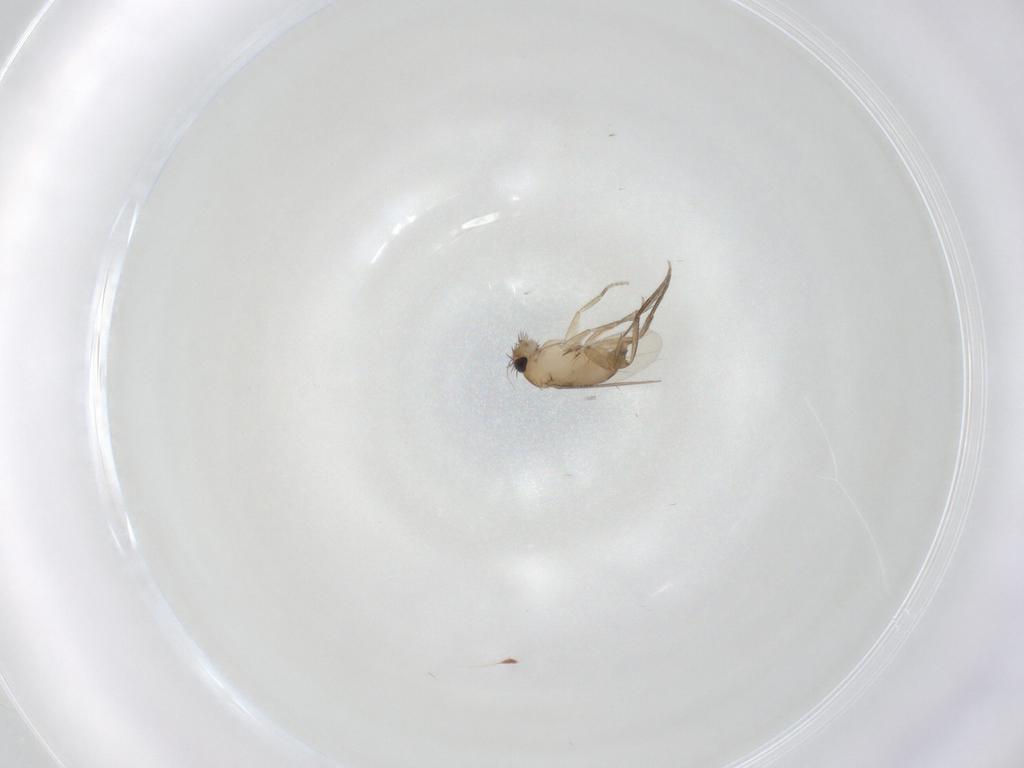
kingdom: Animalia
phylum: Arthropoda
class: Insecta
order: Diptera
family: Phoridae
